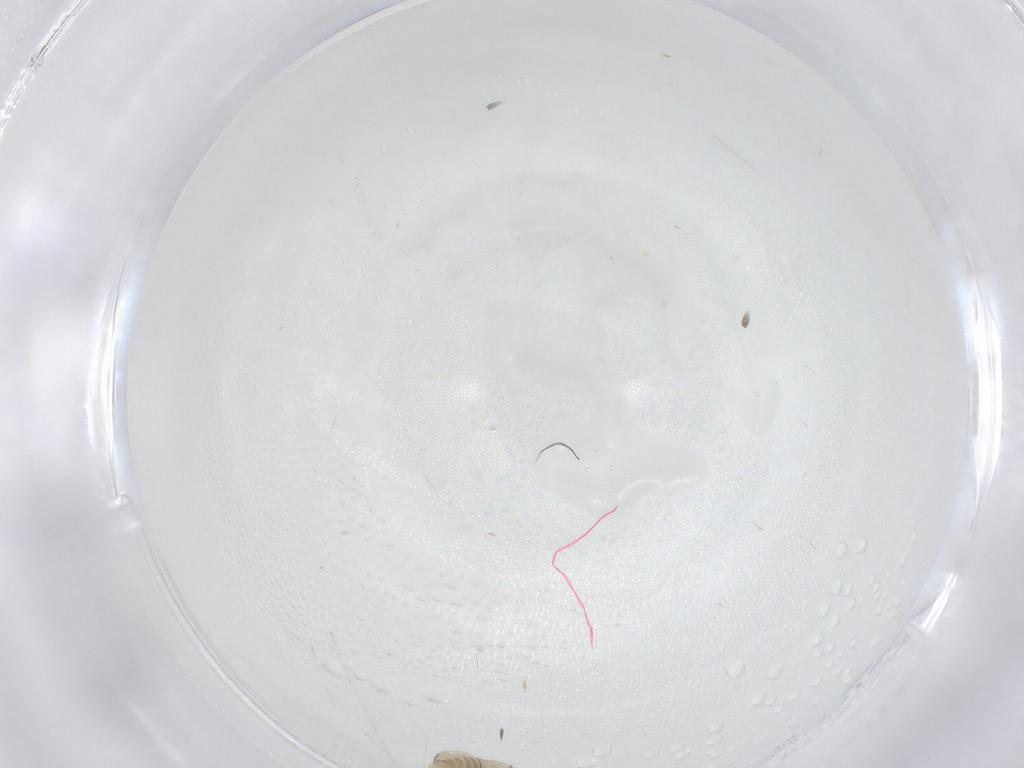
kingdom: Animalia
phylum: Arthropoda
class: Insecta
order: Diptera
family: Cecidomyiidae
